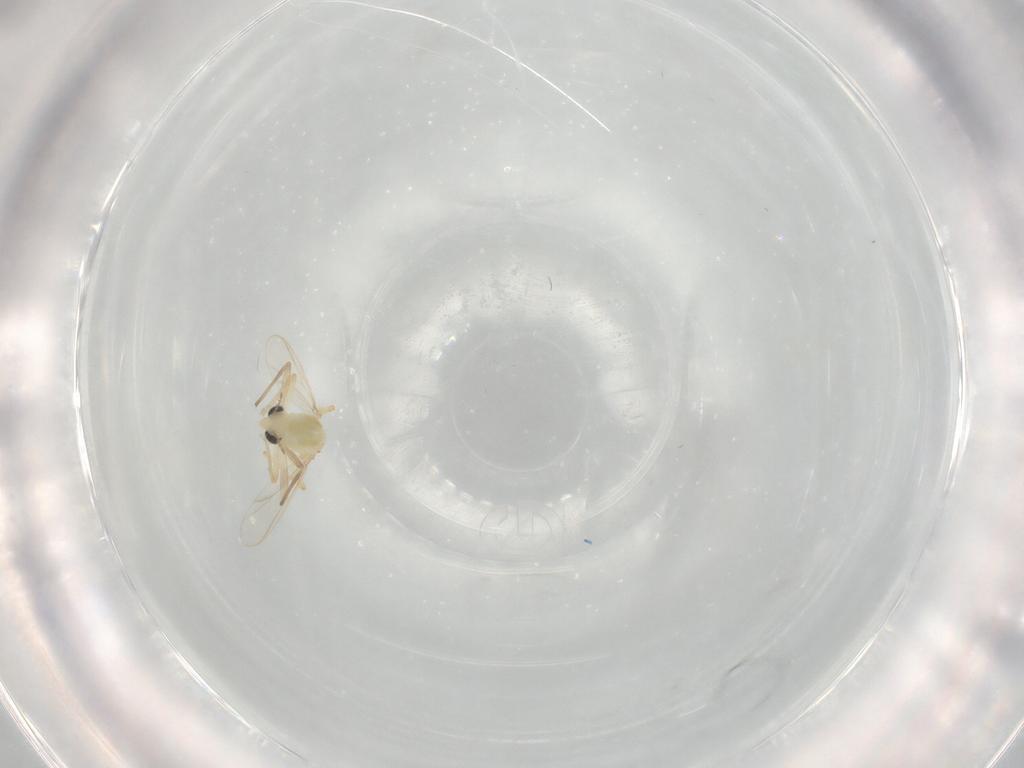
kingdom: Animalia
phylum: Arthropoda
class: Insecta
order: Diptera
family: Chironomidae
